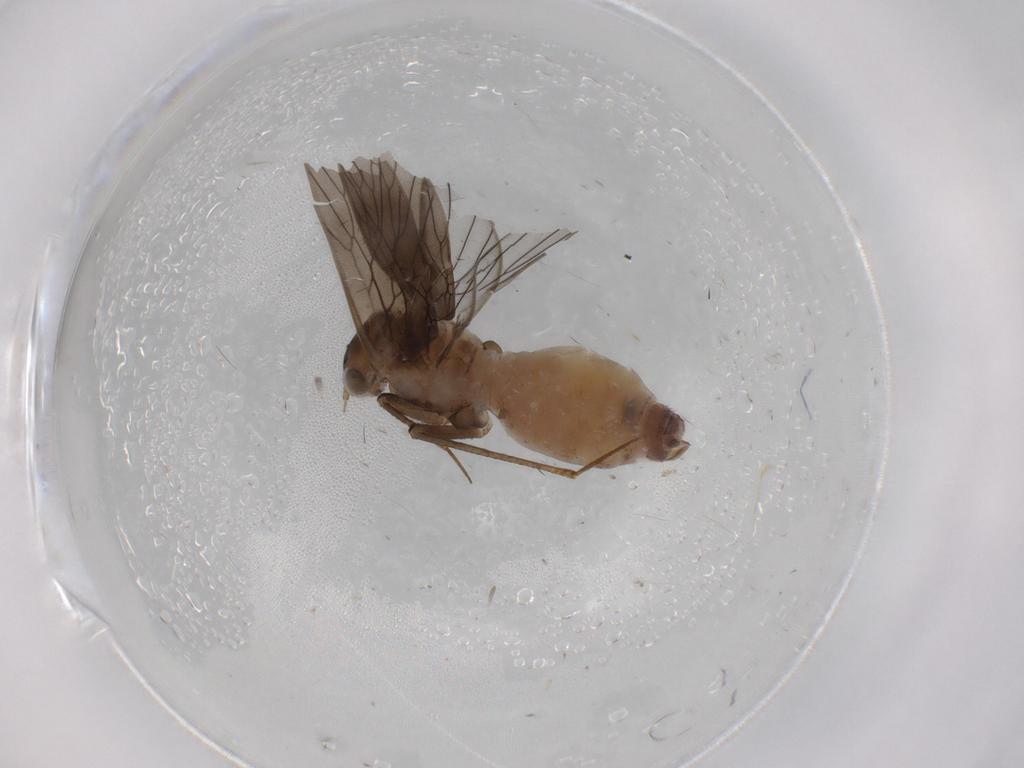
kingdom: Animalia
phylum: Arthropoda
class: Insecta
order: Psocodea
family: Lepidopsocidae
